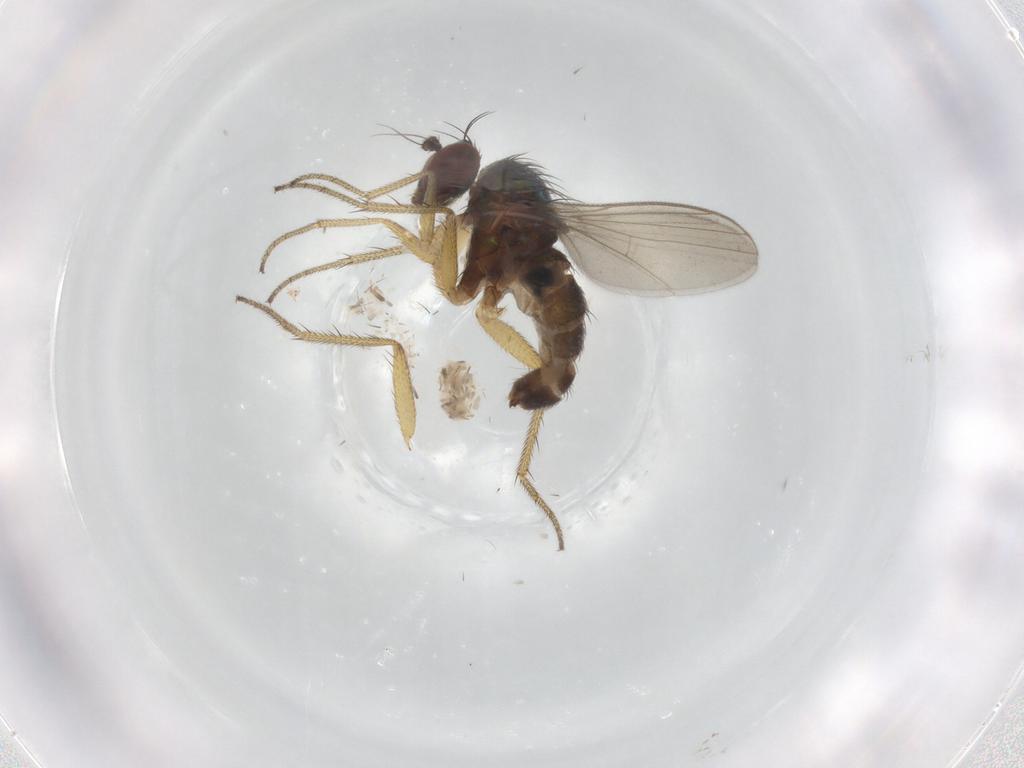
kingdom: Animalia
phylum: Arthropoda
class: Insecta
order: Diptera
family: Micropezidae
